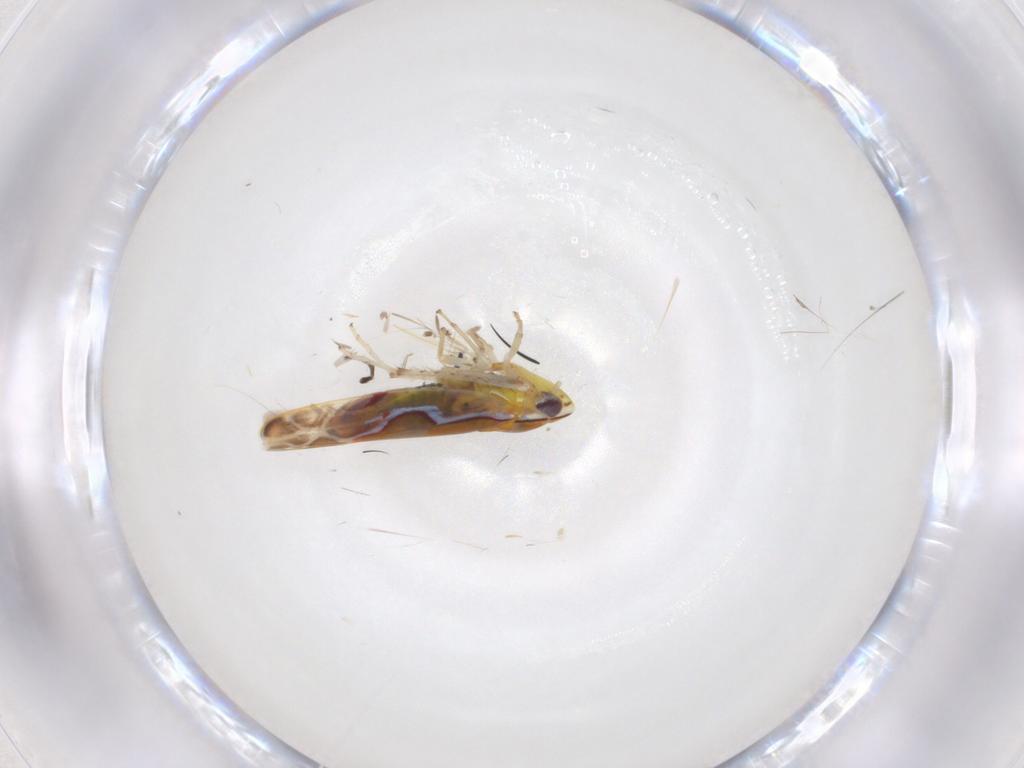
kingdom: Animalia
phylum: Arthropoda
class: Insecta
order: Hemiptera
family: Cicadellidae
